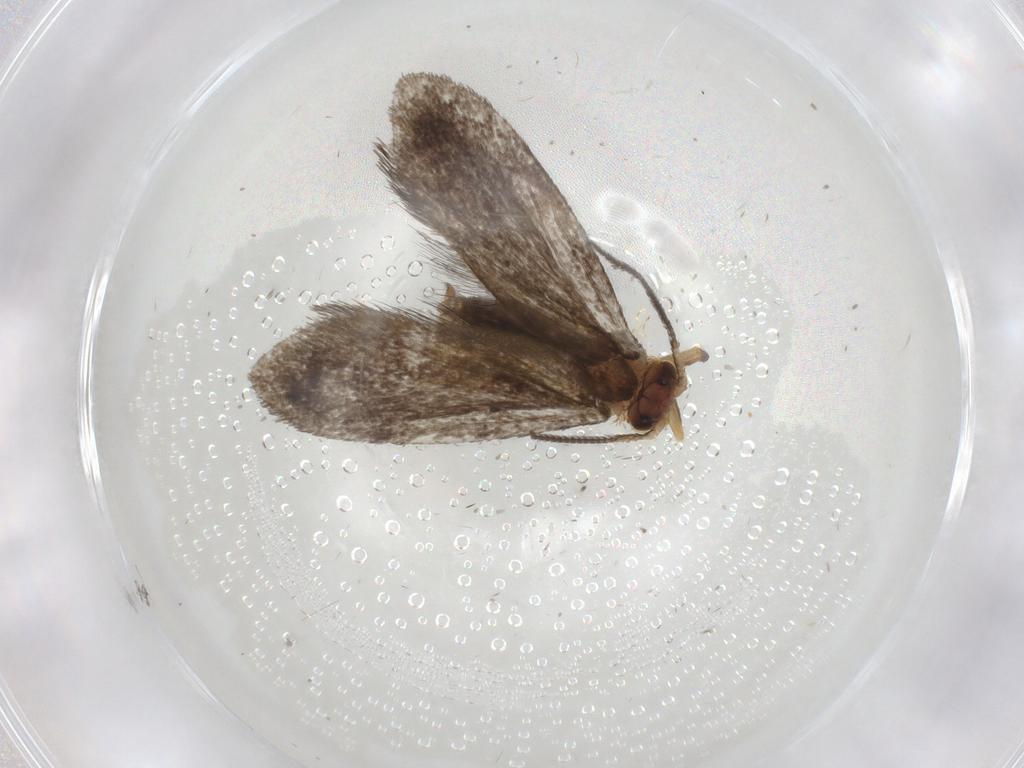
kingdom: Animalia
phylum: Arthropoda
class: Insecta
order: Lepidoptera
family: Micropterigidae
